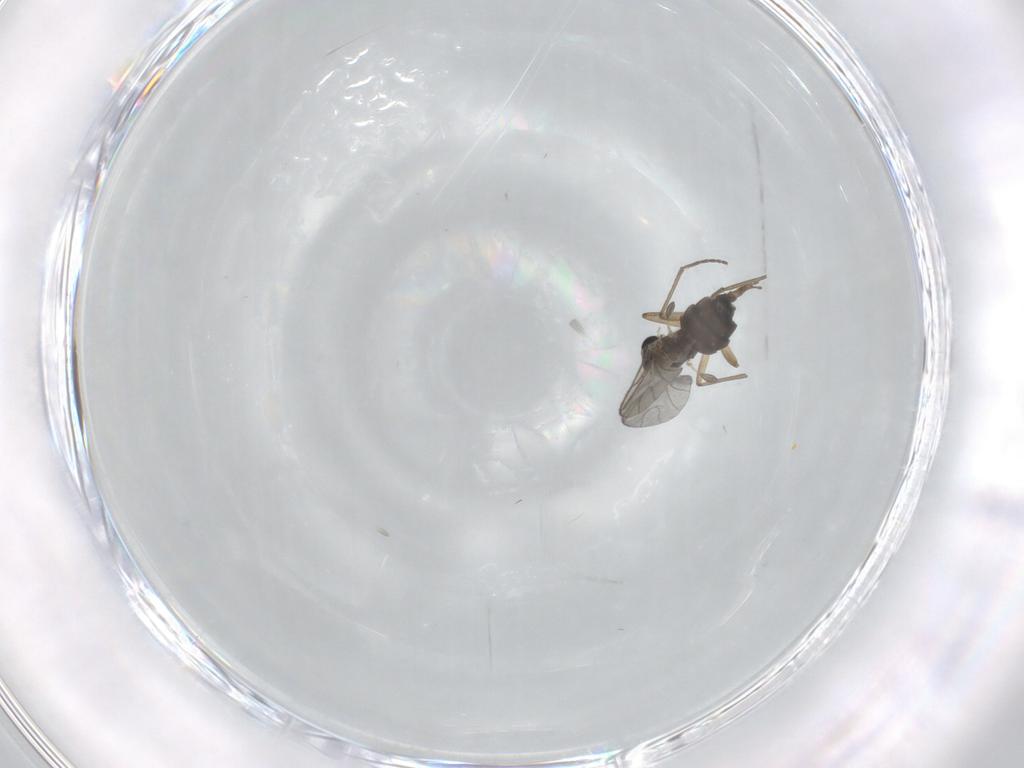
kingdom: Animalia
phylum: Arthropoda
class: Insecta
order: Diptera
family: Sciaridae
